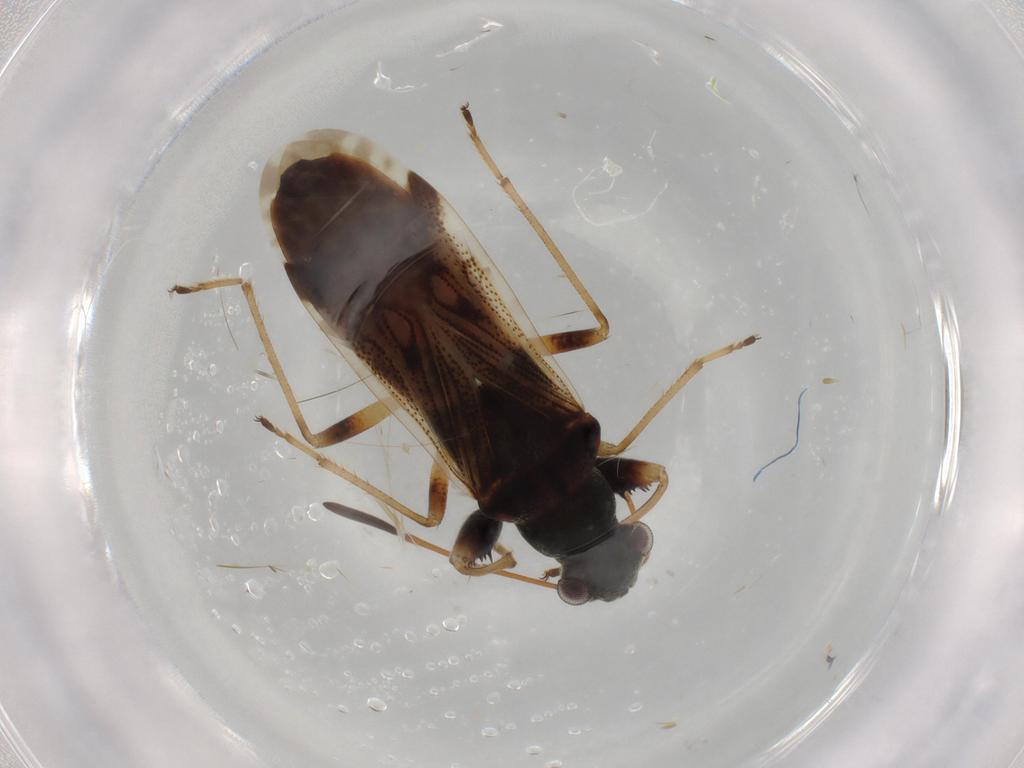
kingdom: Animalia
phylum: Arthropoda
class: Insecta
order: Hemiptera
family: Rhyparochromidae
